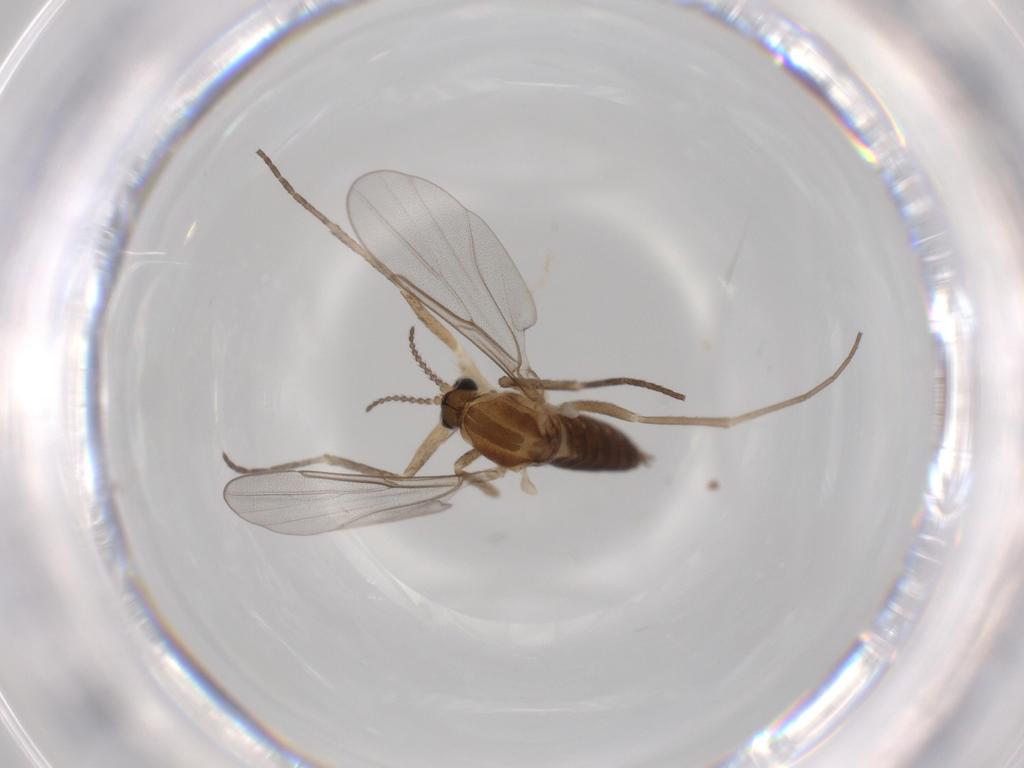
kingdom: Animalia
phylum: Arthropoda
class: Insecta
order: Diptera
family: Cecidomyiidae
